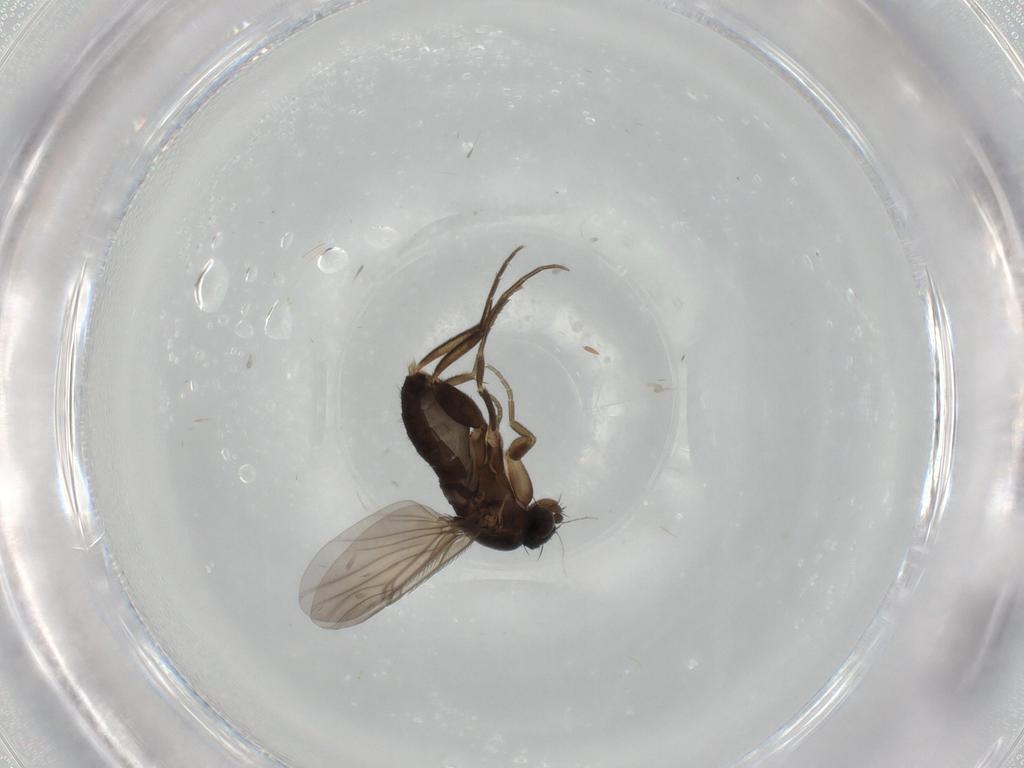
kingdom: Animalia
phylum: Arthropoda
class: Insecta
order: Diptera
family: Phoridae
